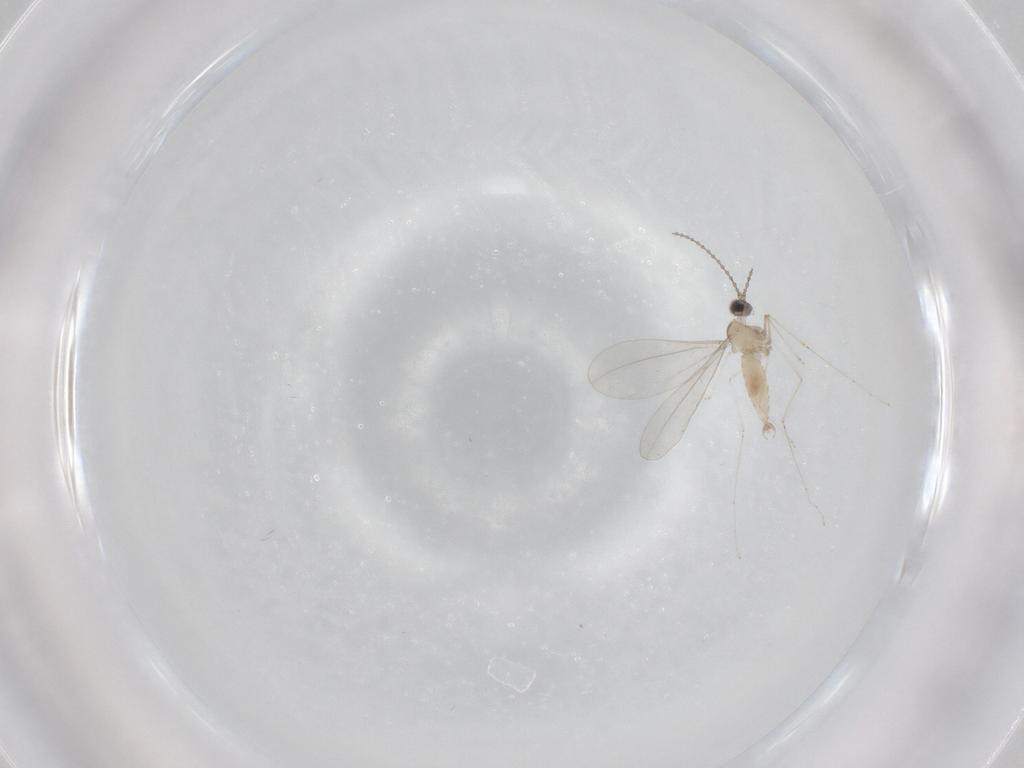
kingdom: Animalia
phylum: Arthropoda
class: Insecta
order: Diptera
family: Cecidomyiidae
